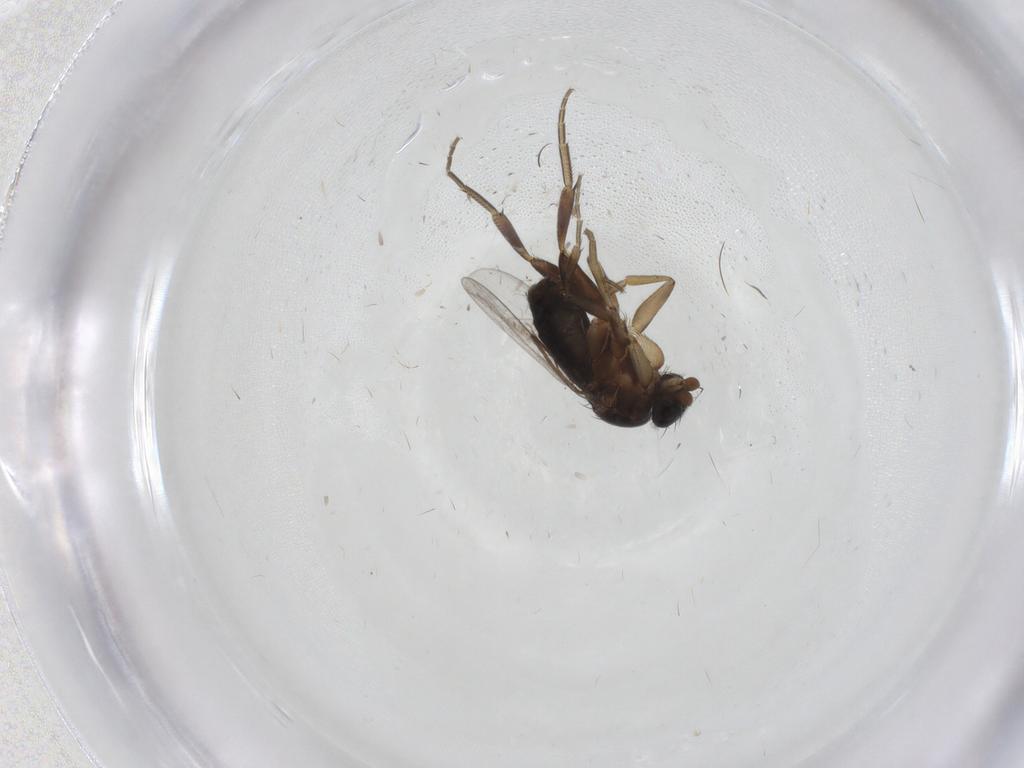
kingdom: Animalia
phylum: Arthropoda
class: Insecta
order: Diptera
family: Phoridae
